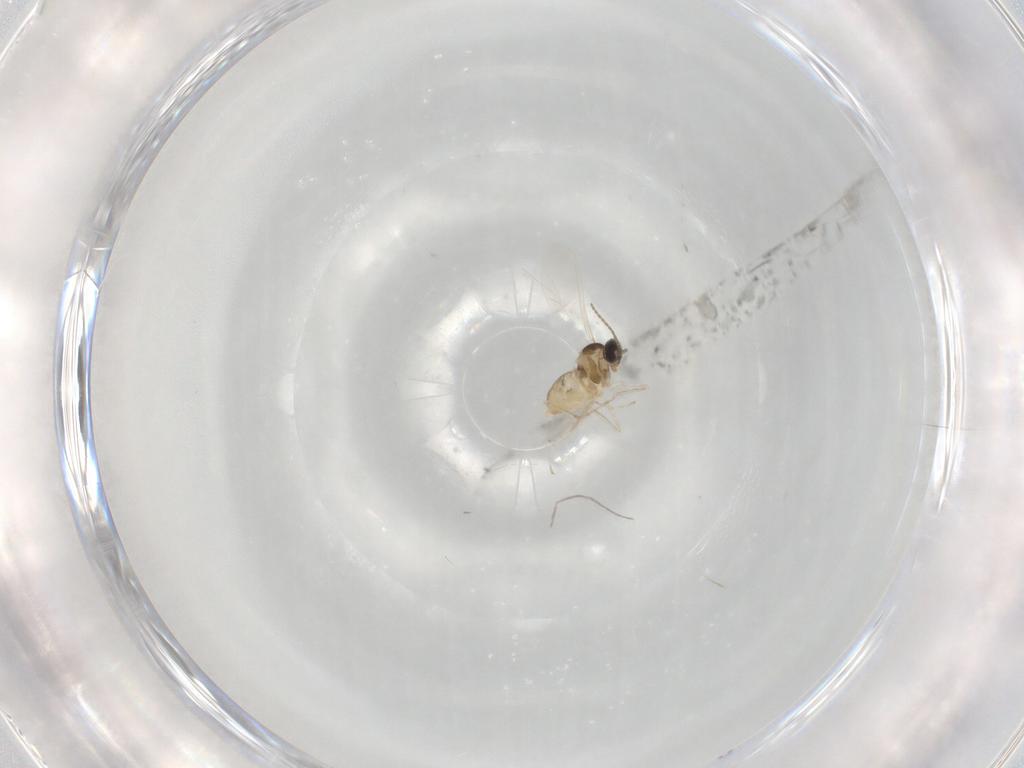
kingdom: Animalia
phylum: Arthropoda
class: Insecta
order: Diptera
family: Cecidomyiidae
